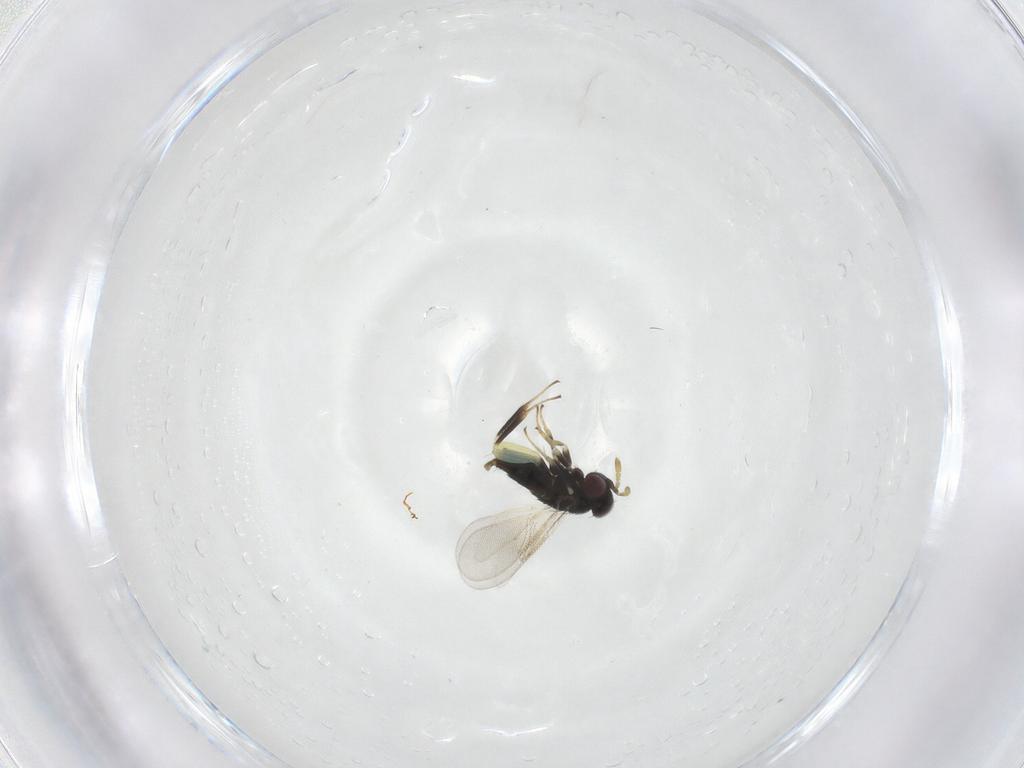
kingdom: Animalia
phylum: Arthropoda
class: Insecta
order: Hymenoptera
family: Aphelinidae
